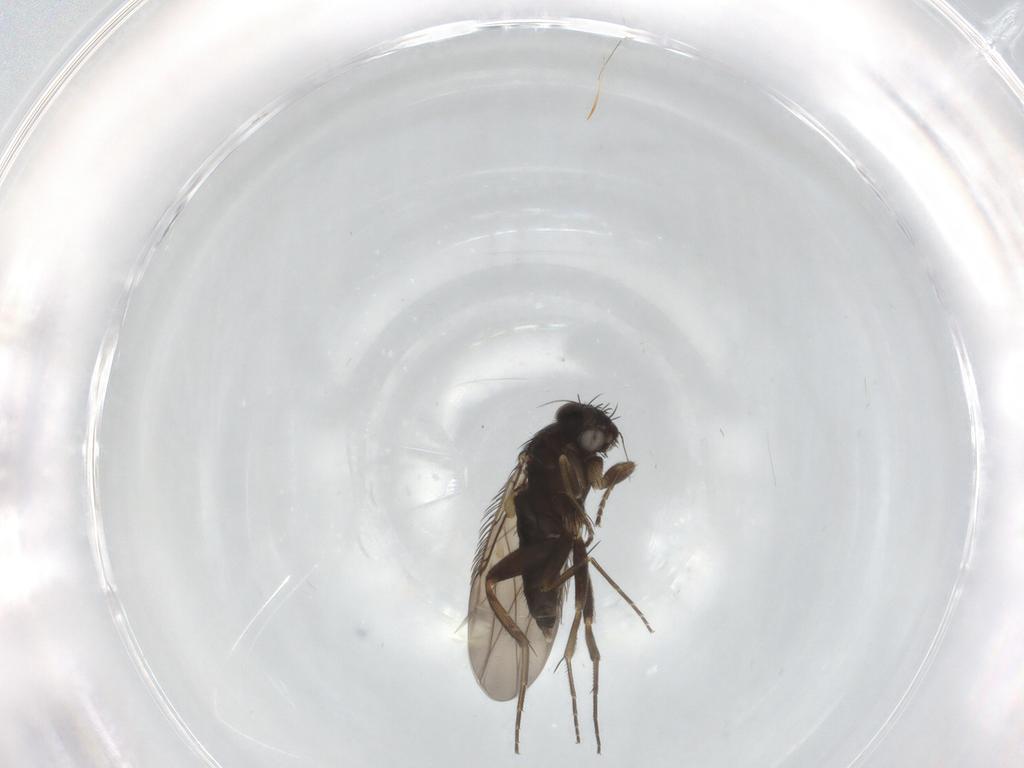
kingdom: Animalia
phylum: Arthropoda
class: Insecta
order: Diptera
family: Phoridae
